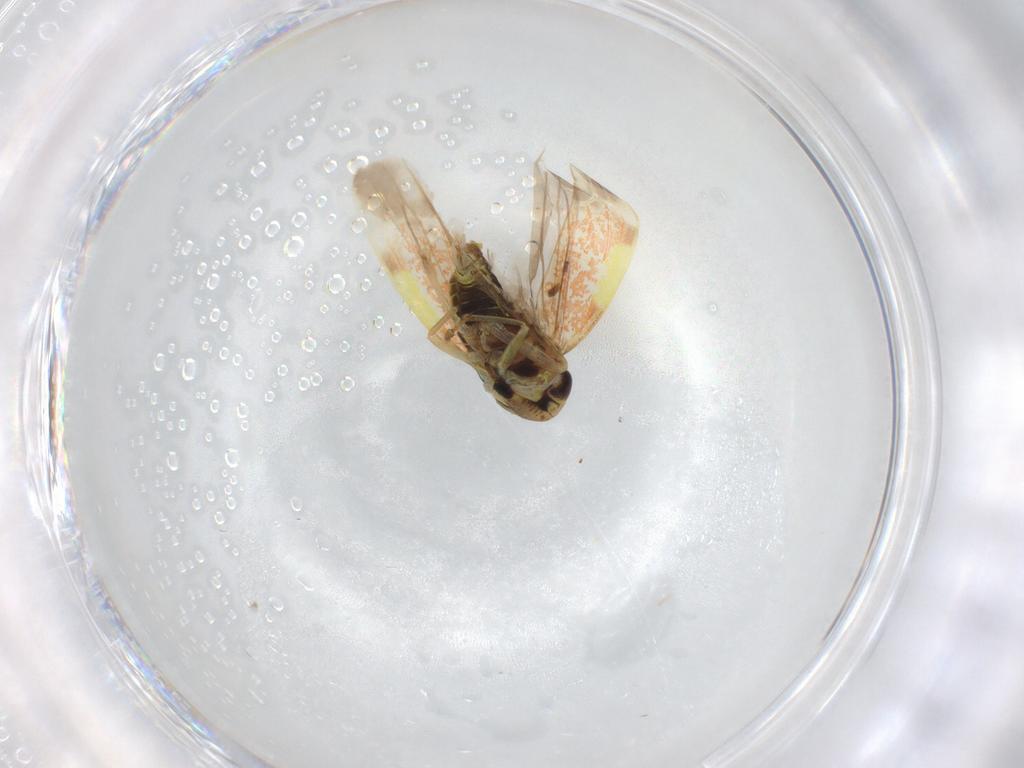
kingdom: Animalia
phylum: Arthropoda
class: Insecta
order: Hemiptera
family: Cicadellidae
